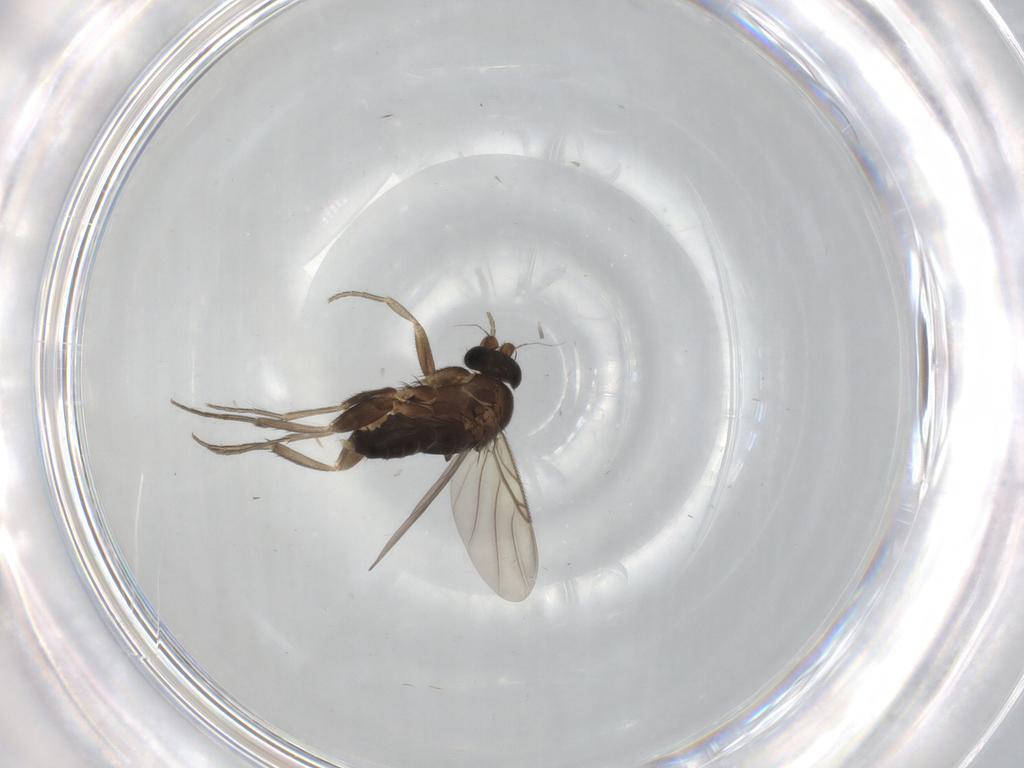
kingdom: Animalia
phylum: Arthropoda
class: Insecta
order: Diptera
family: Phoridae
